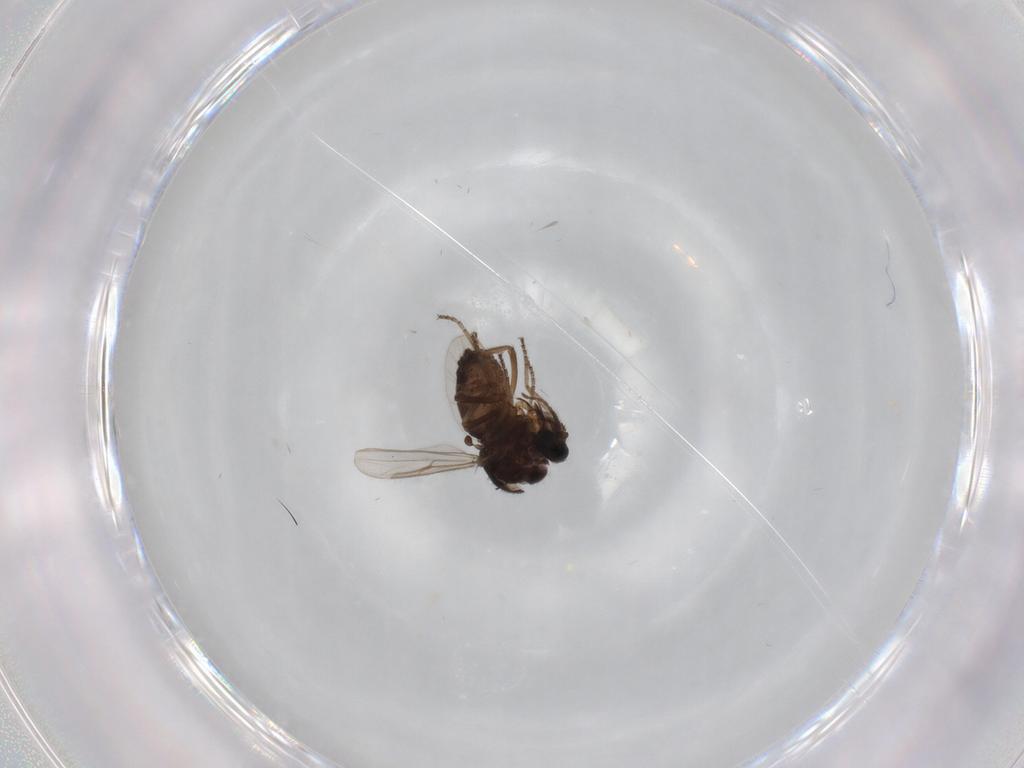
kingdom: Animalia
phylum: Arthropoda
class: Insecta
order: Diptera
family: Ceratopogonidae
